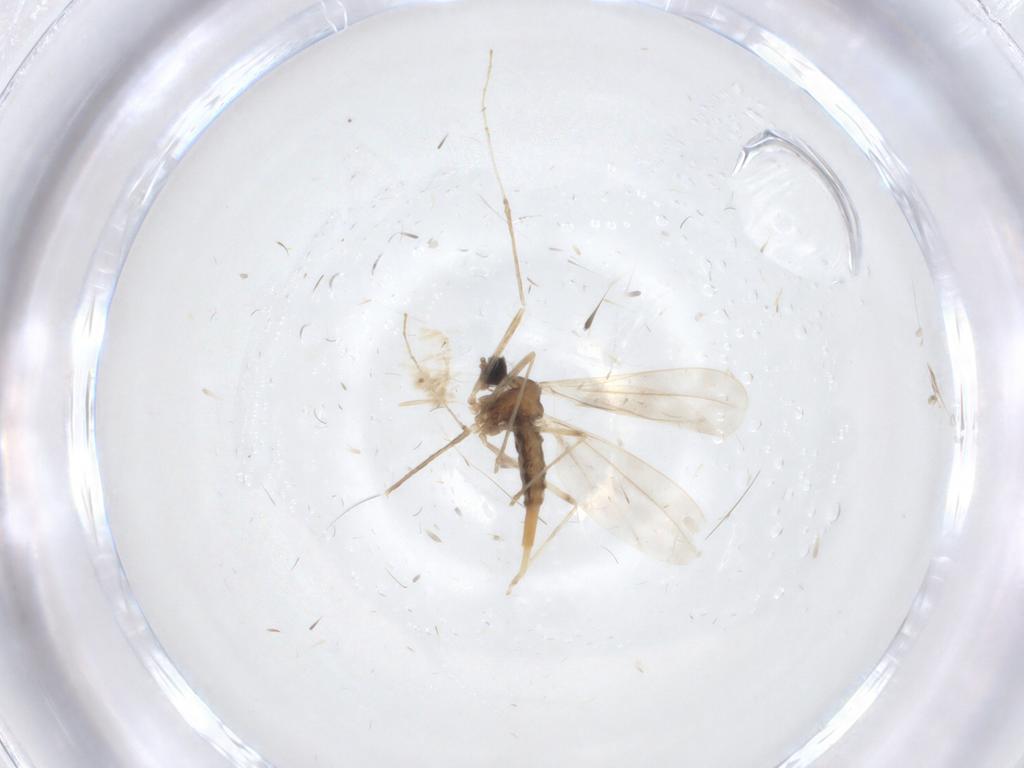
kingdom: Animalia
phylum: Arthropoda
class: Insecta
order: Diptera
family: Cecidomyiidae
